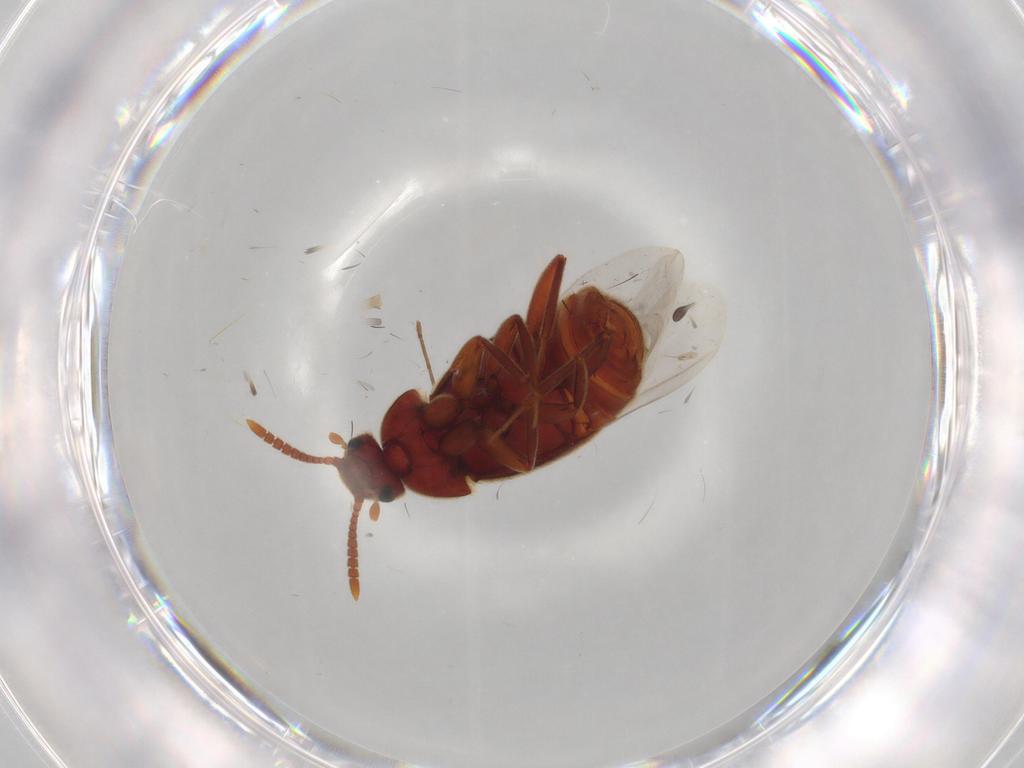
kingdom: Animalia
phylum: Arthropoda
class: Insecta
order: Coleoptera
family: Staphylinidae
